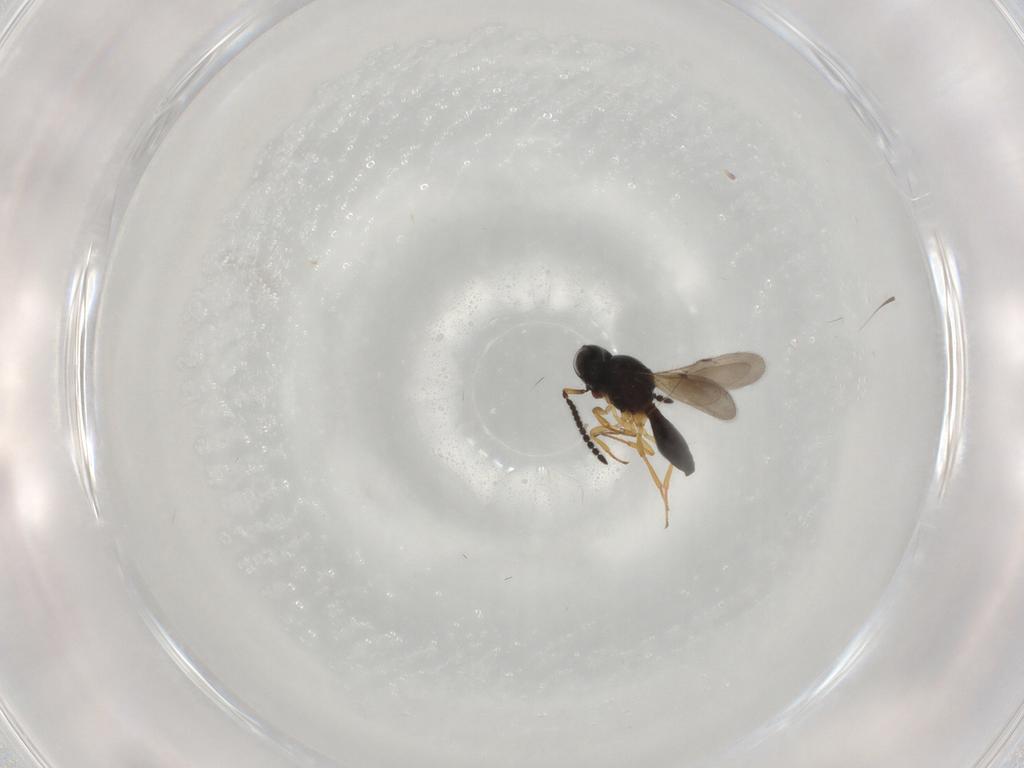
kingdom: Animalia
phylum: Arthropoda
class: Insecta
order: Hymenoptera
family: Scelionidae
